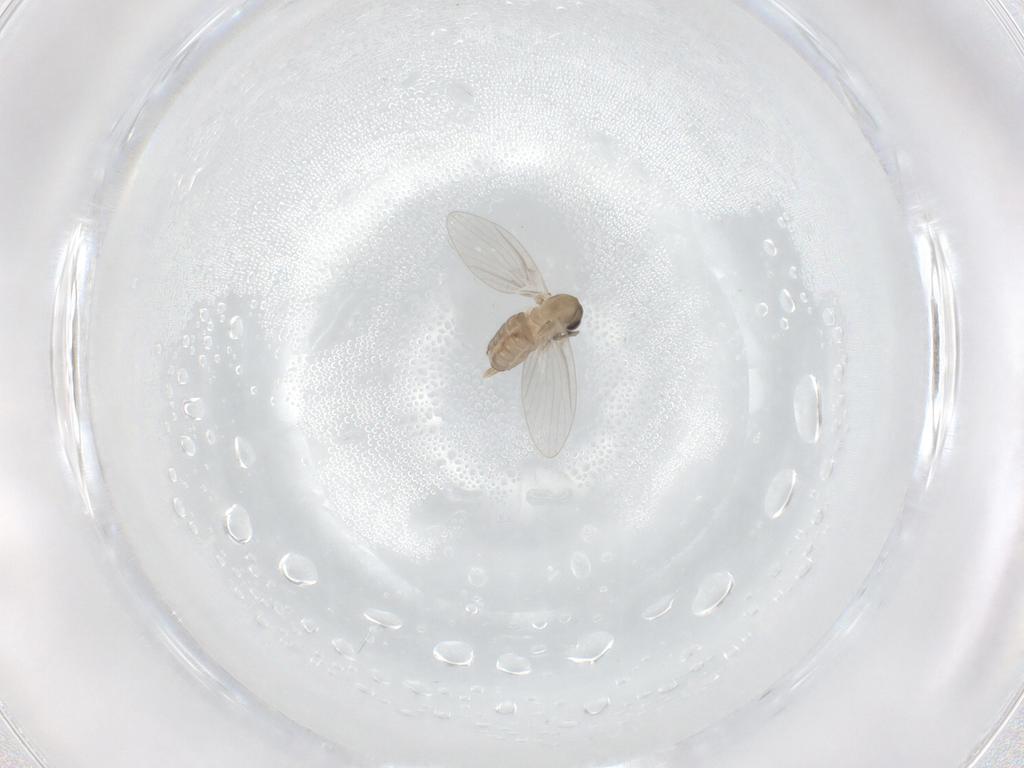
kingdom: Animalia
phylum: Arthropoda
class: Insecta
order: Diptera
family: Psychodidae
